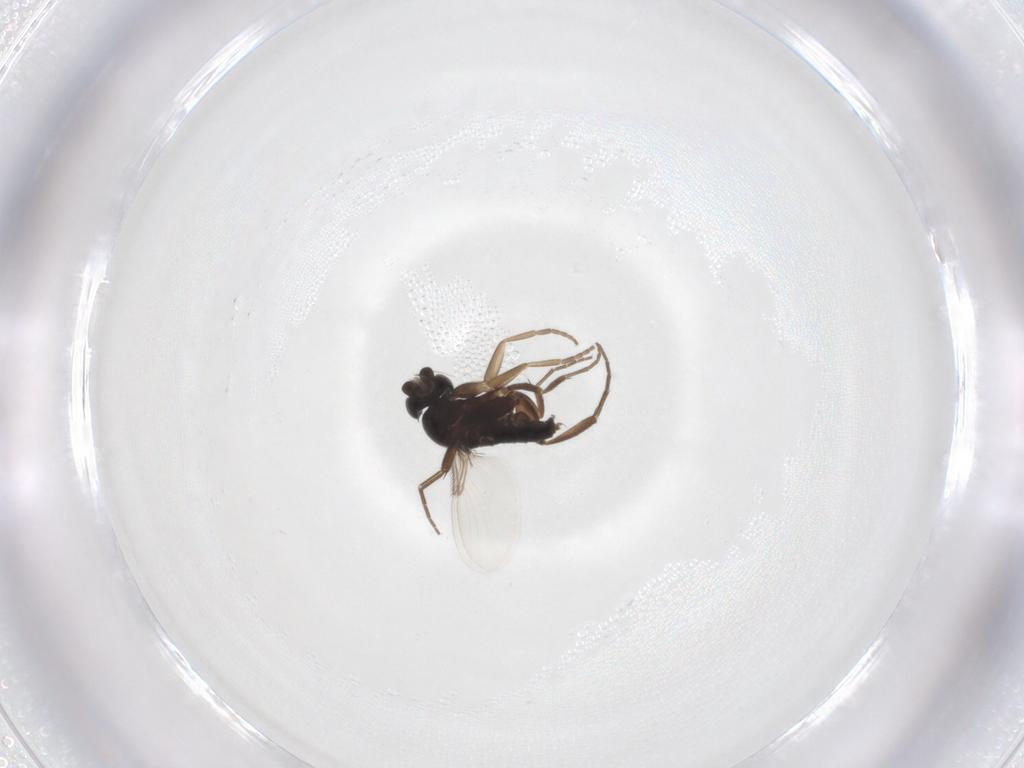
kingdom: Animalia
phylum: Arthropoda
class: Insecta
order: Diptera
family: Phoridae
